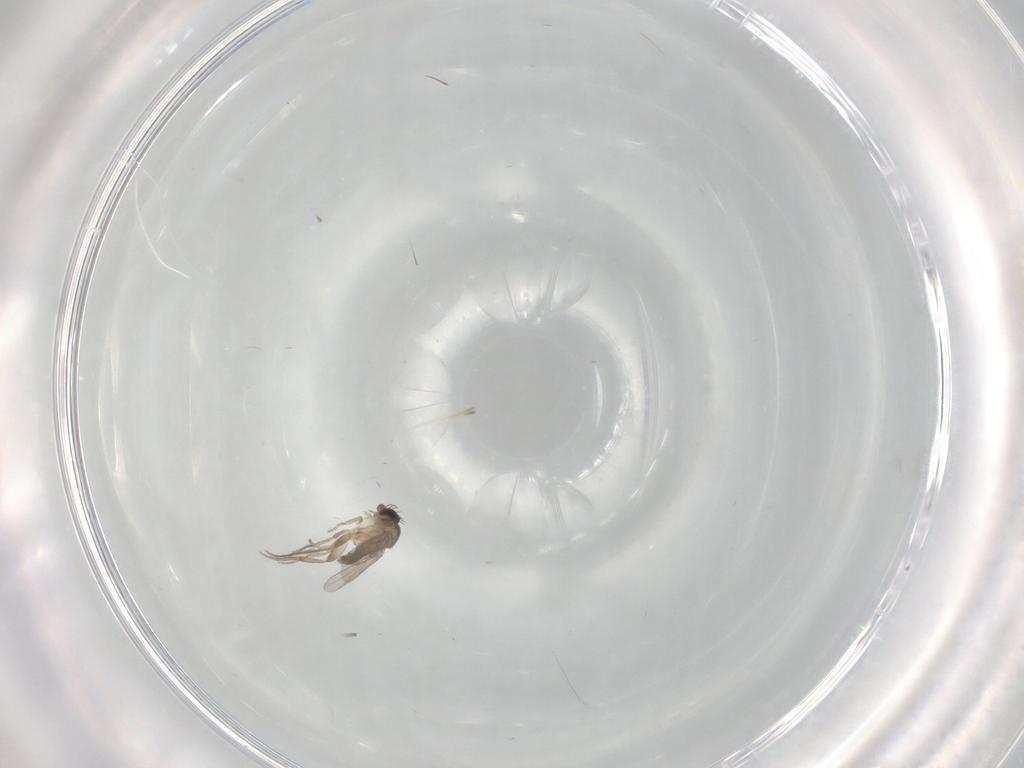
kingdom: Animalia
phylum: Arthropoda
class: Insecta
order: Diptera
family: Phoridae
